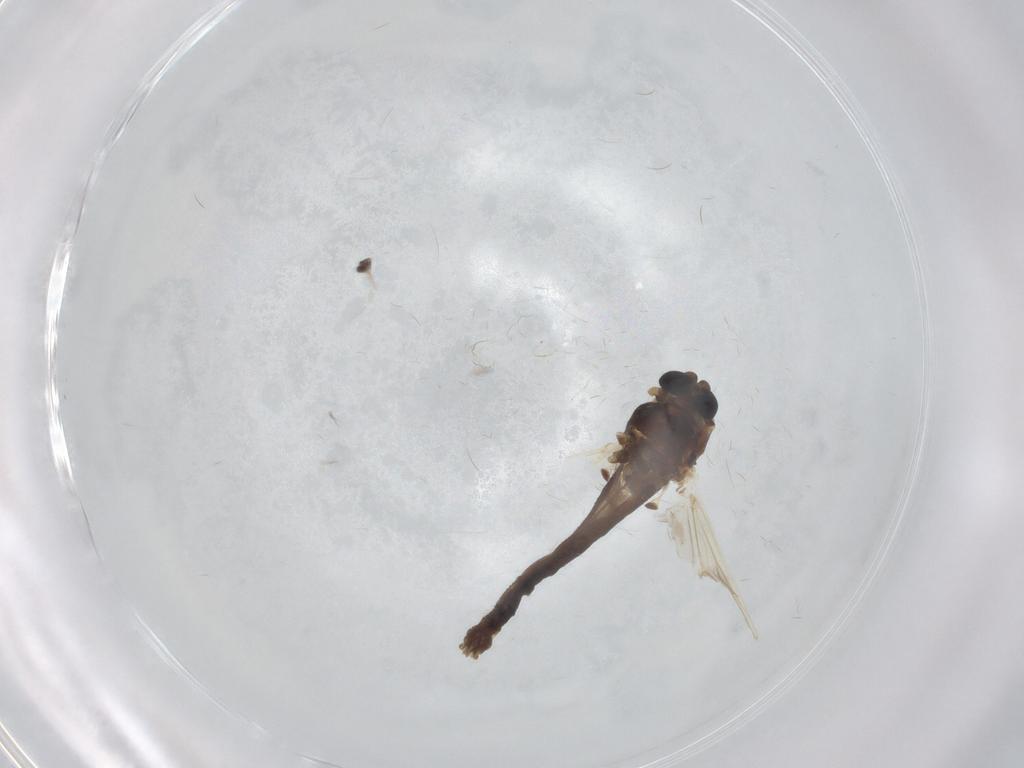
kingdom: Animalia
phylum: Arthropoda
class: Insecta
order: Diptera
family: Chironomidae
